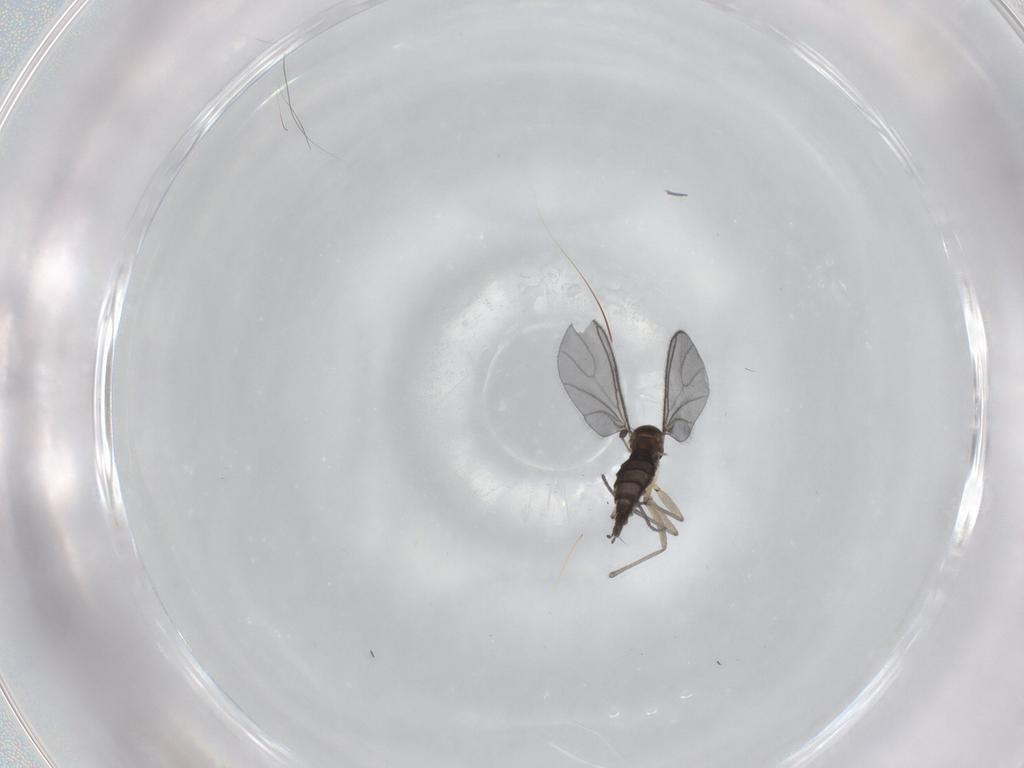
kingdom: Animalia
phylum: Arthropoda
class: Insecta
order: Diptera
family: Sciaridae
